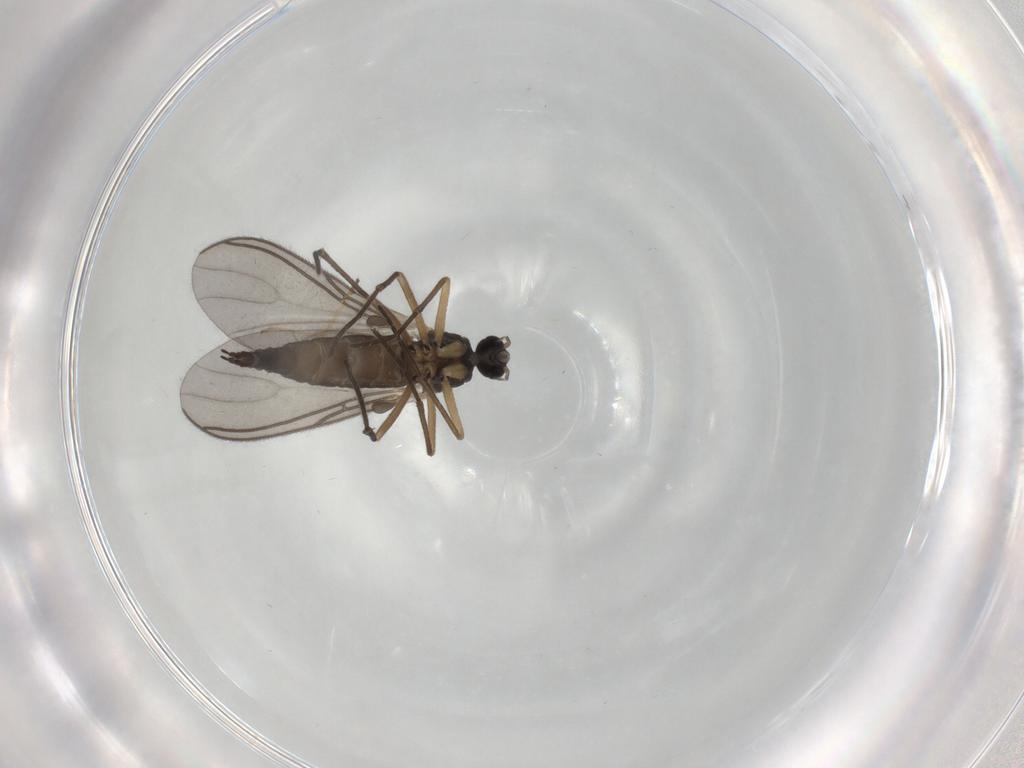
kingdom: Animalia
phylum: Arthropoda
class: Insecta
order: Diptera
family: Sciaridae
